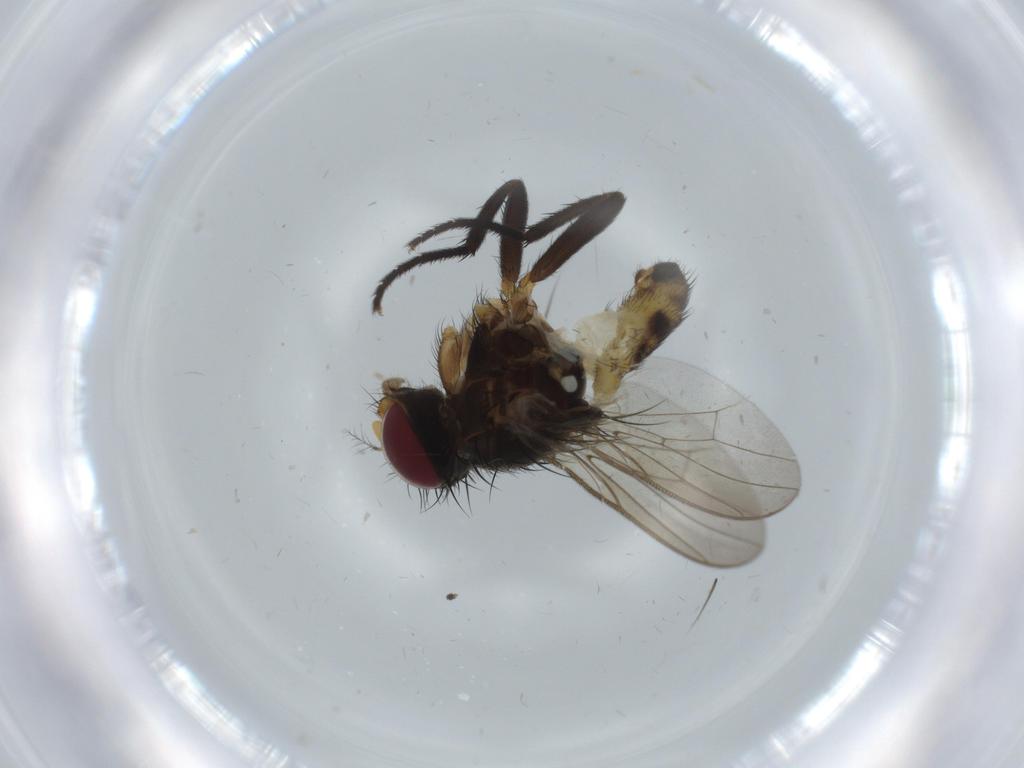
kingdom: Animalia
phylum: Arthropoda
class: Insecta
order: Diptera
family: Anthomyiidae
